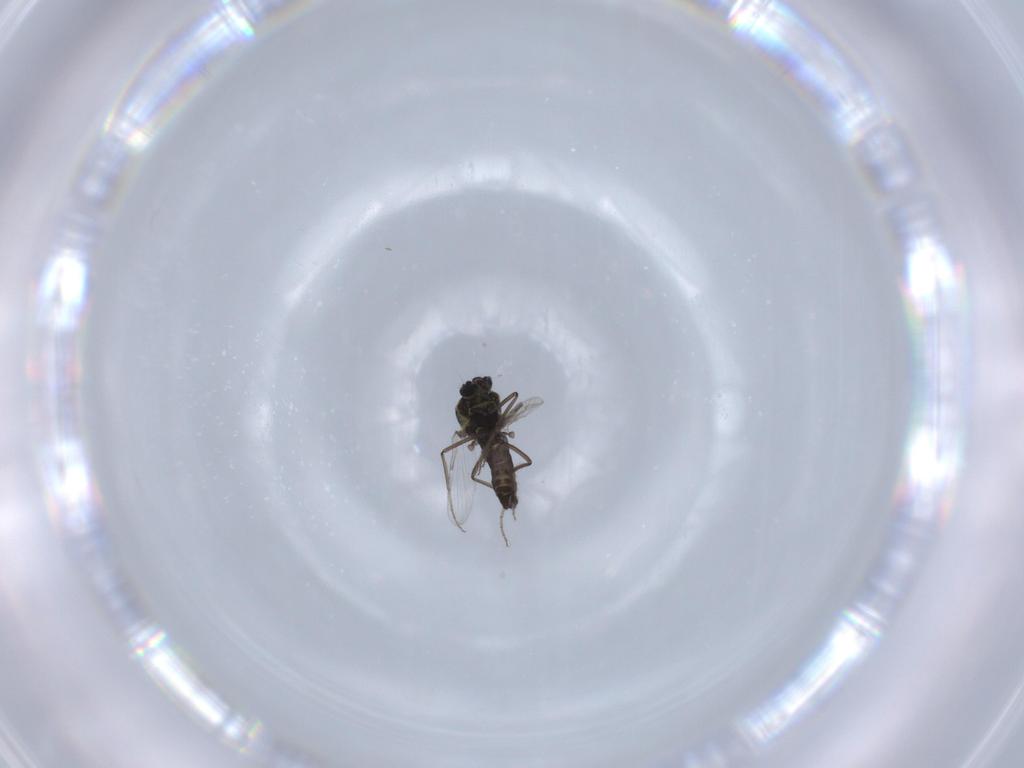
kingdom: Animalia
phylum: Arthropoda
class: Insecta
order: Diptera
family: Ceratopogonidae
